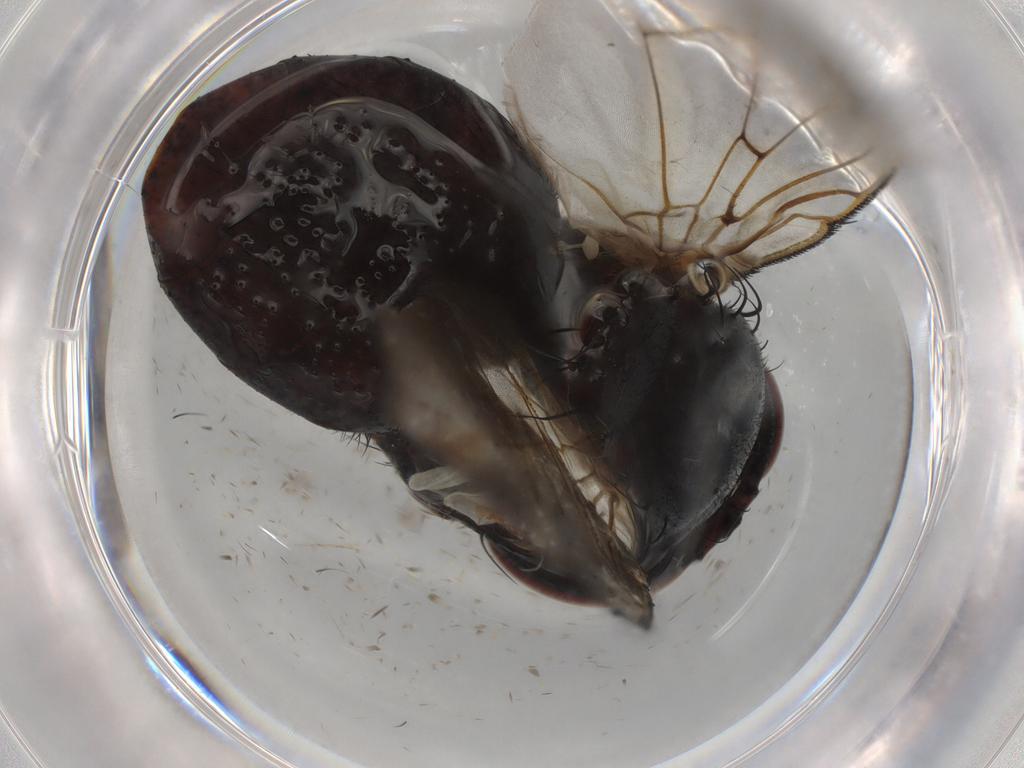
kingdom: Animalia
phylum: Arthropoda
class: Insecta
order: Diptera
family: Tachinidae
